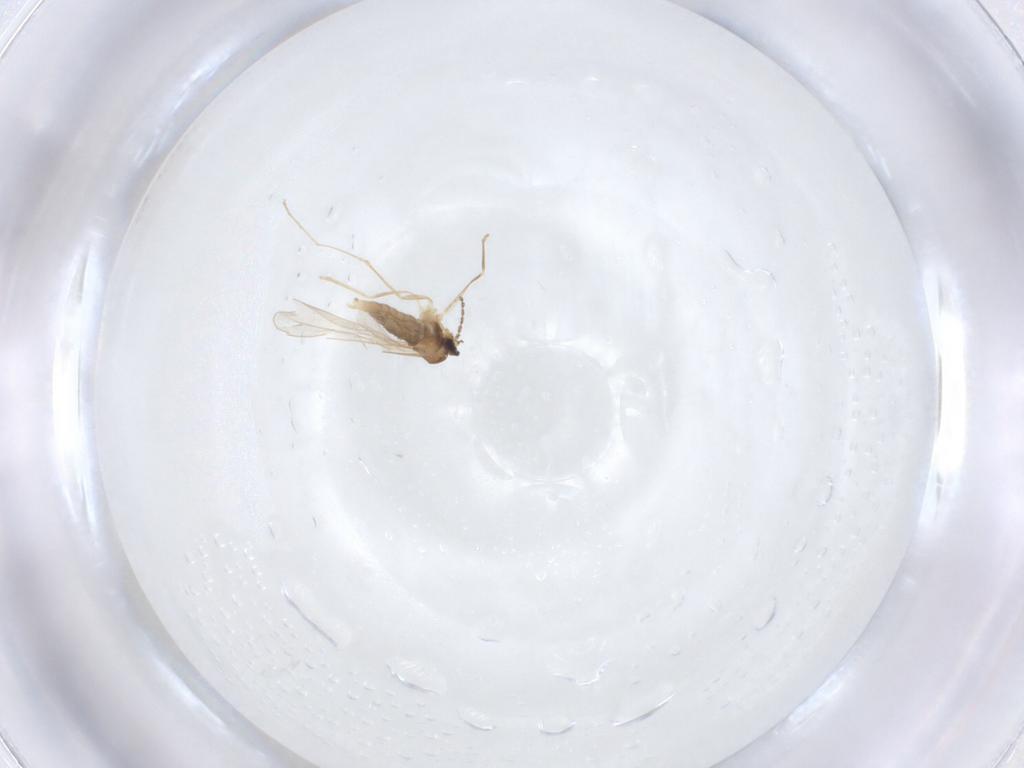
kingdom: Animalia
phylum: Arthropoda
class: Insecta
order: Diptera
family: Cecidomyiidae
